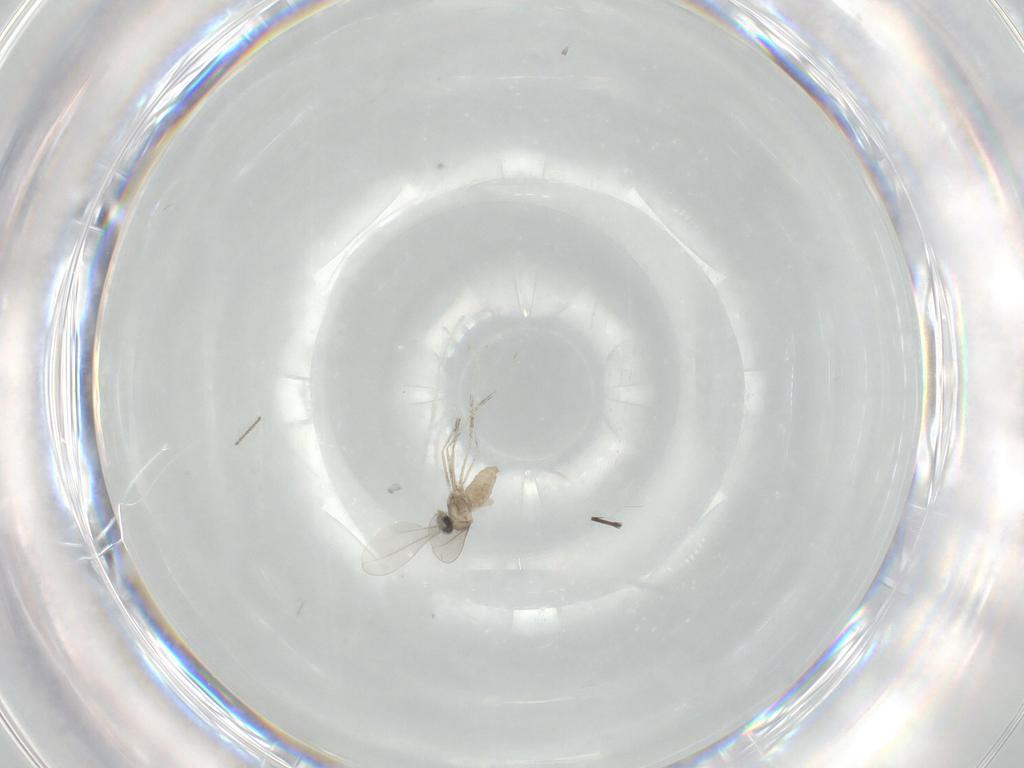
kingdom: Animalia
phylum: Arthropoda
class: Insecta
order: Diptera
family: Cecidomyiidae
